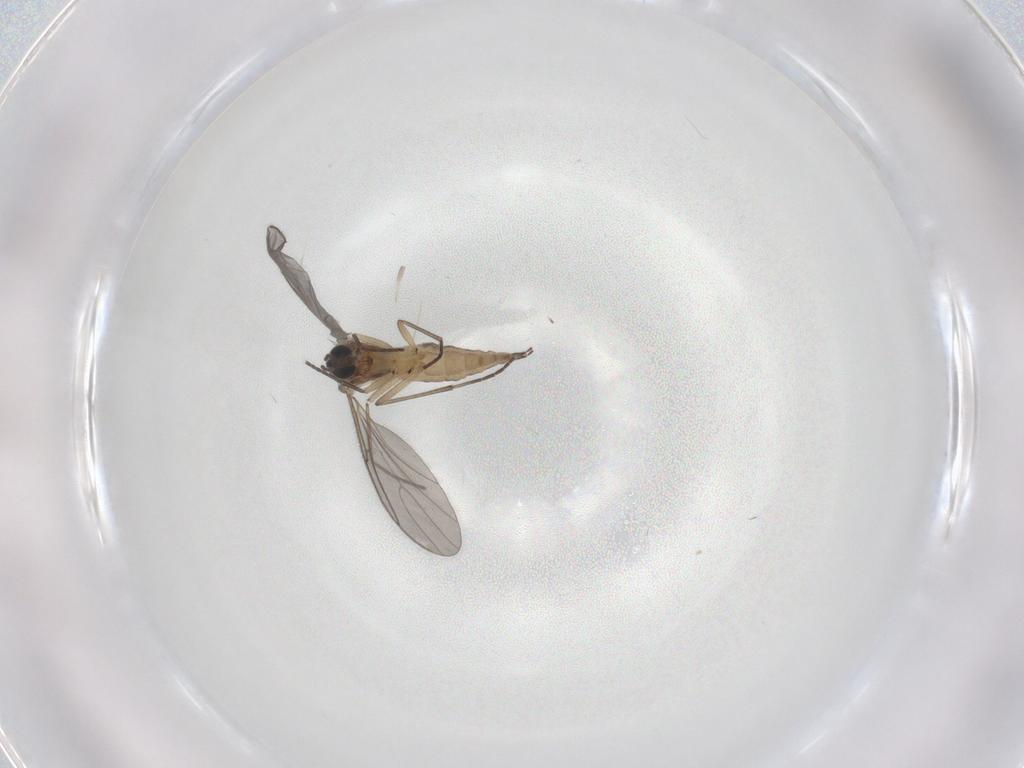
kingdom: Animalia
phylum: Arthropoda
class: Insecta
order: Diptera
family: Sciaridae
